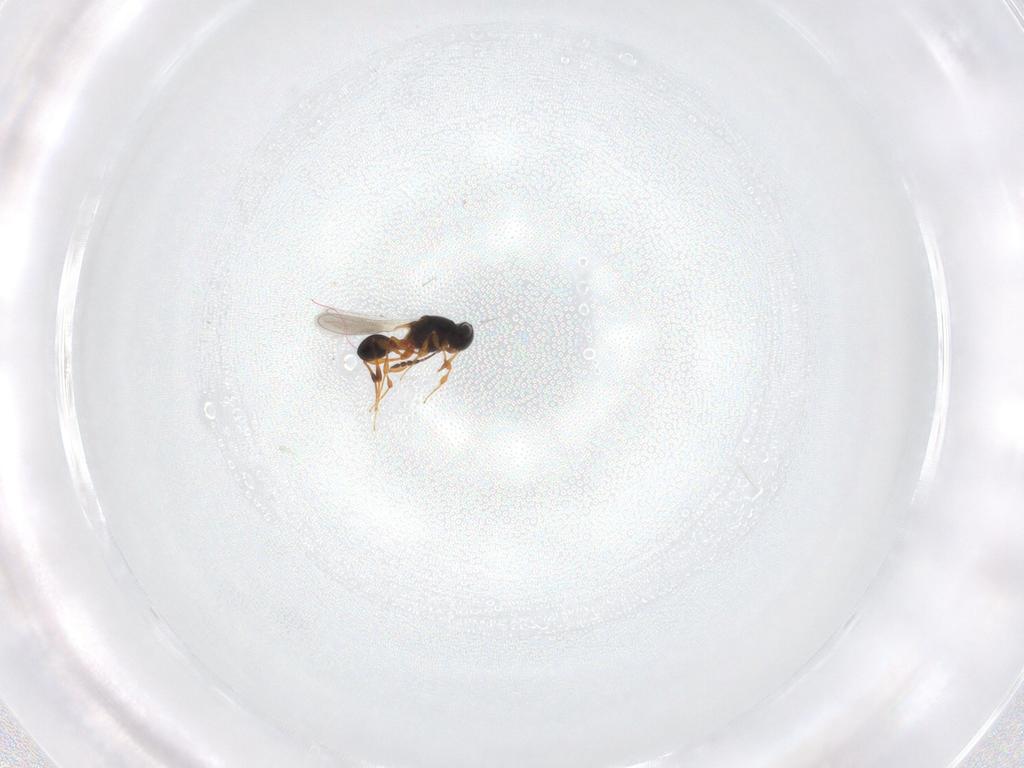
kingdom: Animalia
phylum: Arthropoda
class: Insecta
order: Hymenoptera
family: Platygastridae
